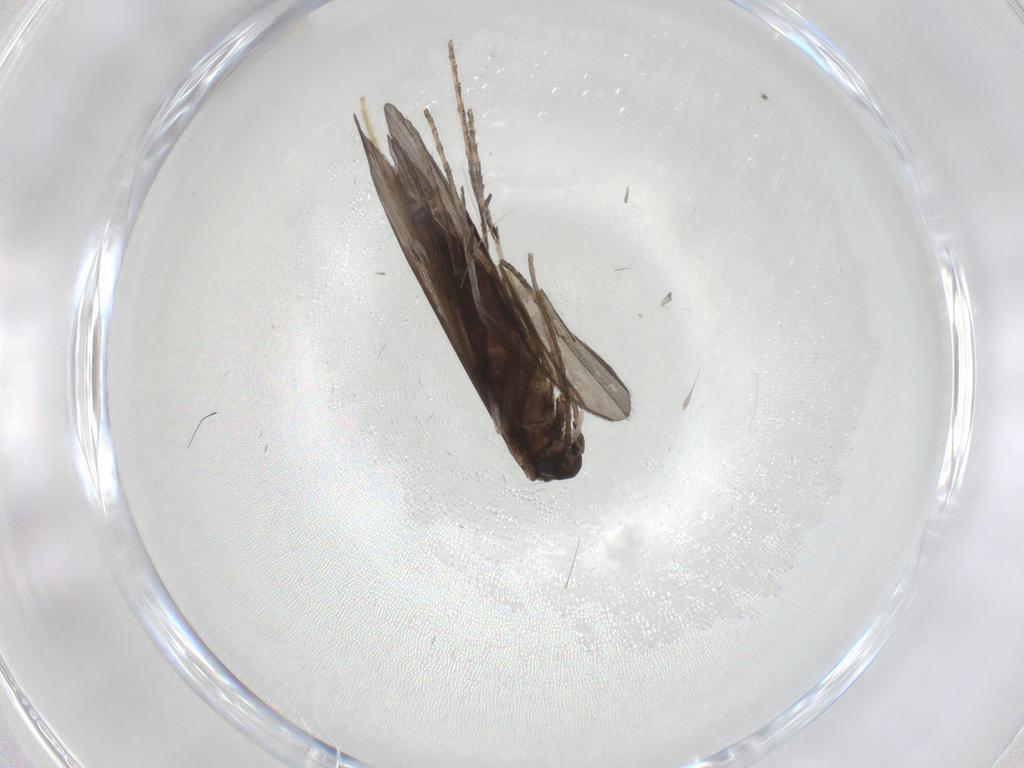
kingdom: Animalia
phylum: Arthropoda
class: Insecta
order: Trichoptera
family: Xiphocentronidae
